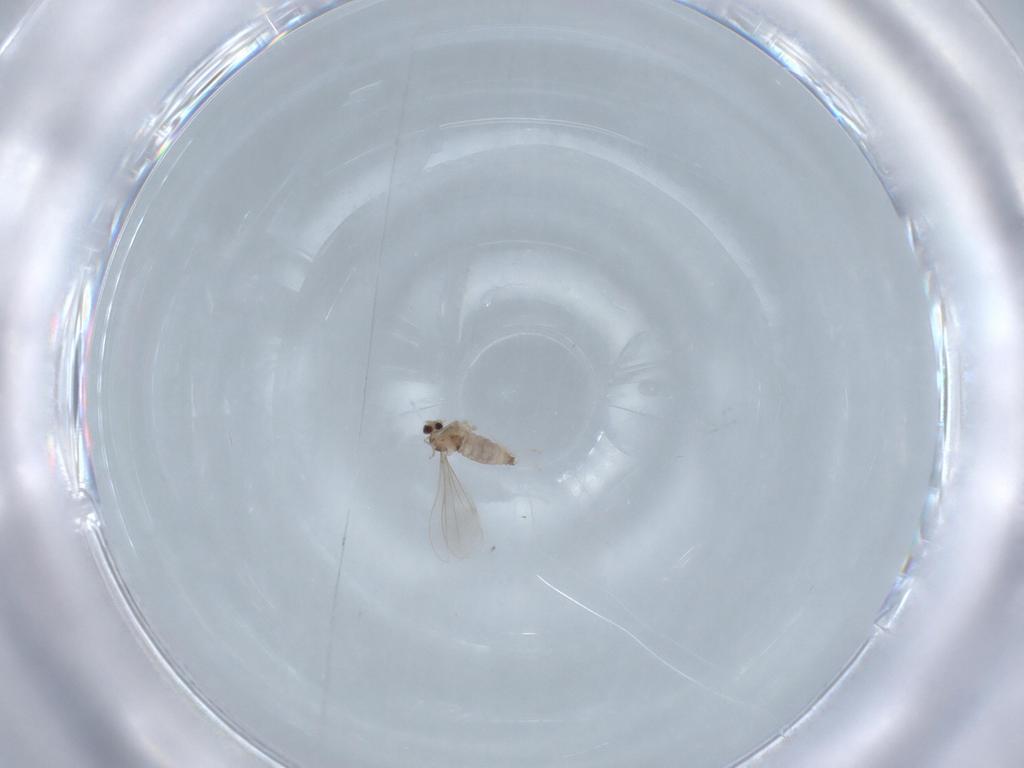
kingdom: Animalia
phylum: Arthropoda
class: Insecta
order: Diptera
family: Cecidomyiidae
